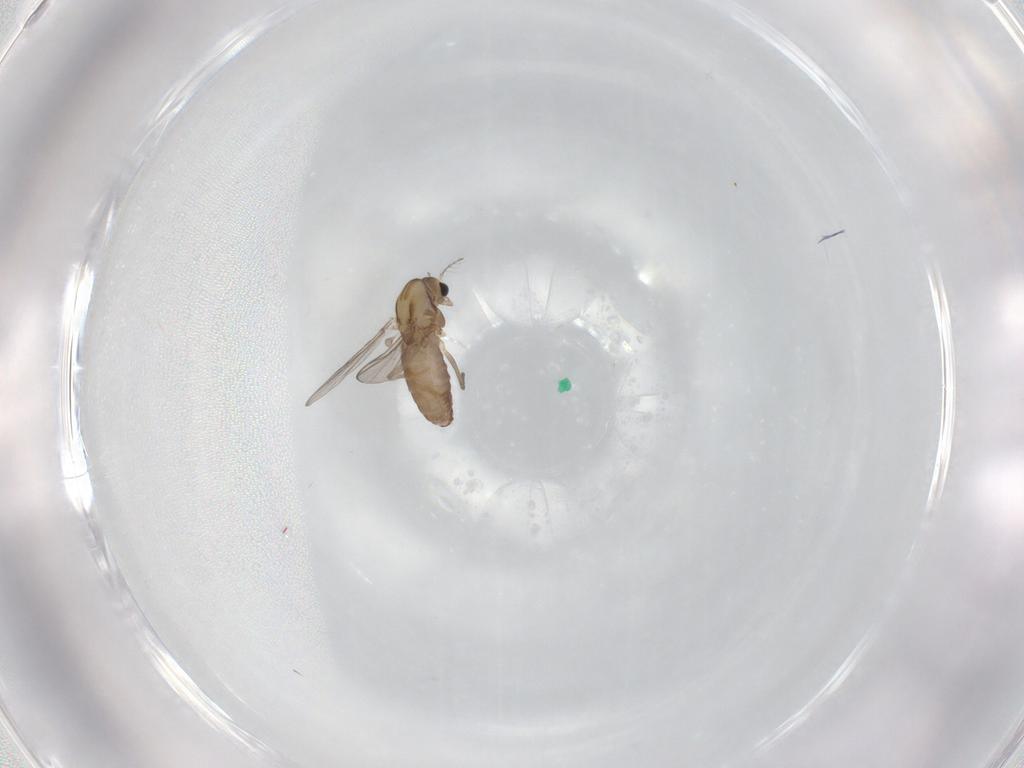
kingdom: Animalia
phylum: Arthropoda
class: Insecta
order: Diptera
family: Chironomidae
